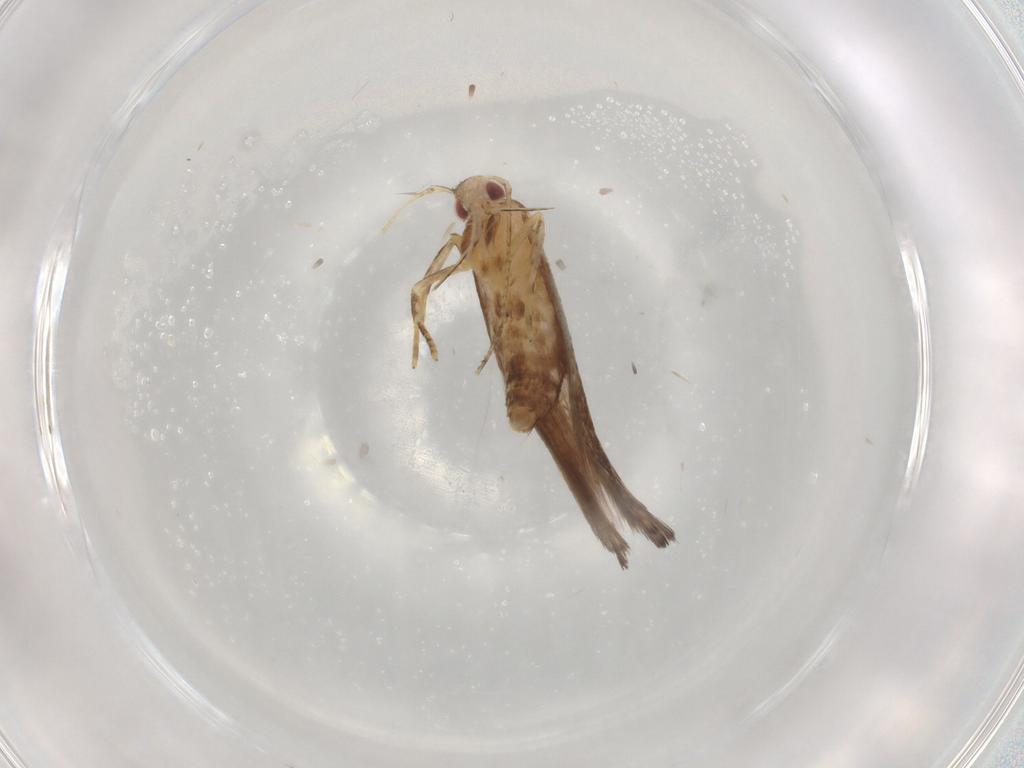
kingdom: Animalia
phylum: Arthropoda
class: Insecta
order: Lepidoptera
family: Cosmopterigidae
